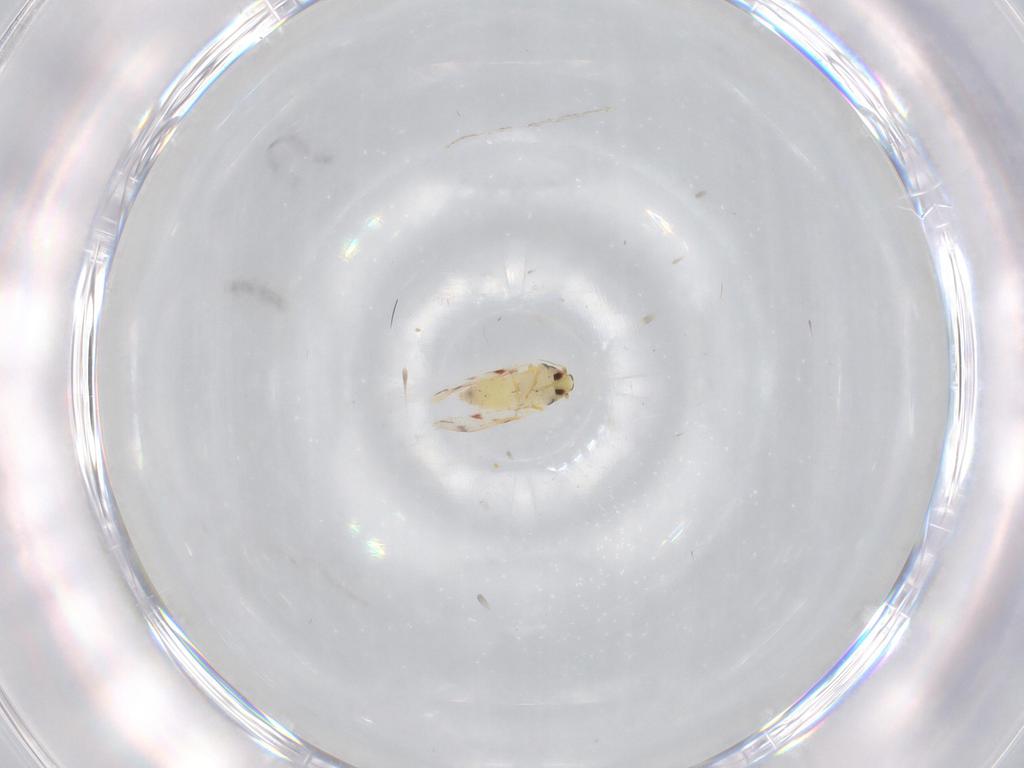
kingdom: Animalia
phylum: Arthropoda
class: Insecta
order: Hemiptera
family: Aleyrodidae
